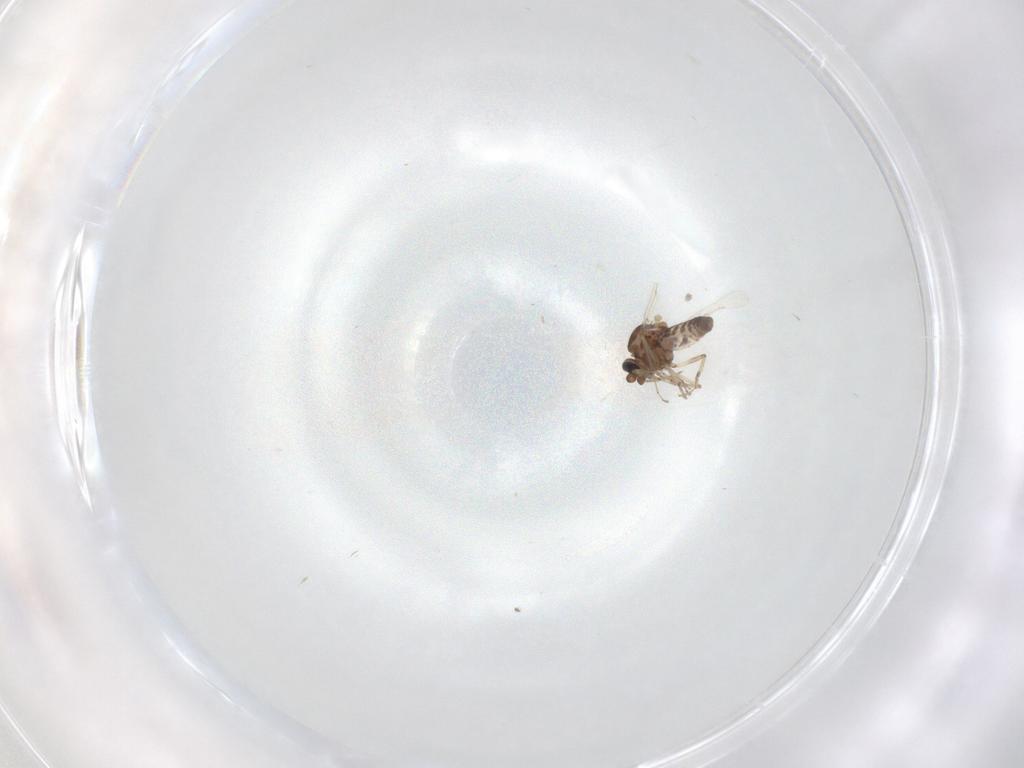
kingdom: Animalia
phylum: Arthropoda
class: Insecta
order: Diptera
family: Ceratopogonidae
